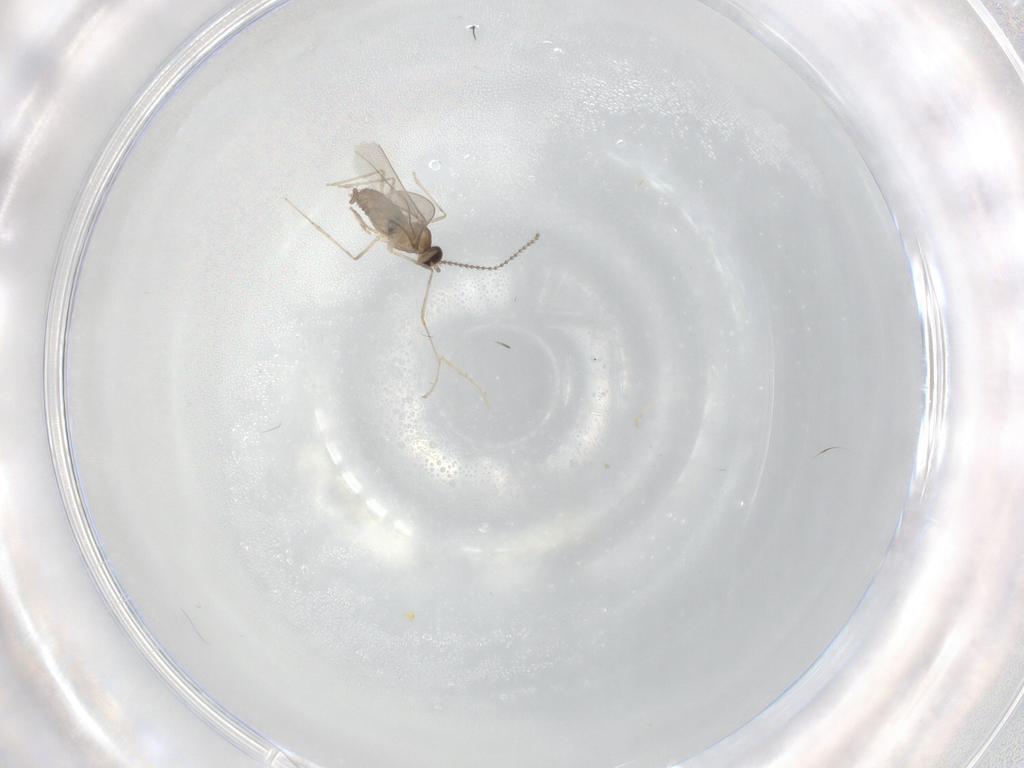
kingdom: Animalia
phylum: Arthropoda
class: Insecta
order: Diptera
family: Cecidomyiidae
